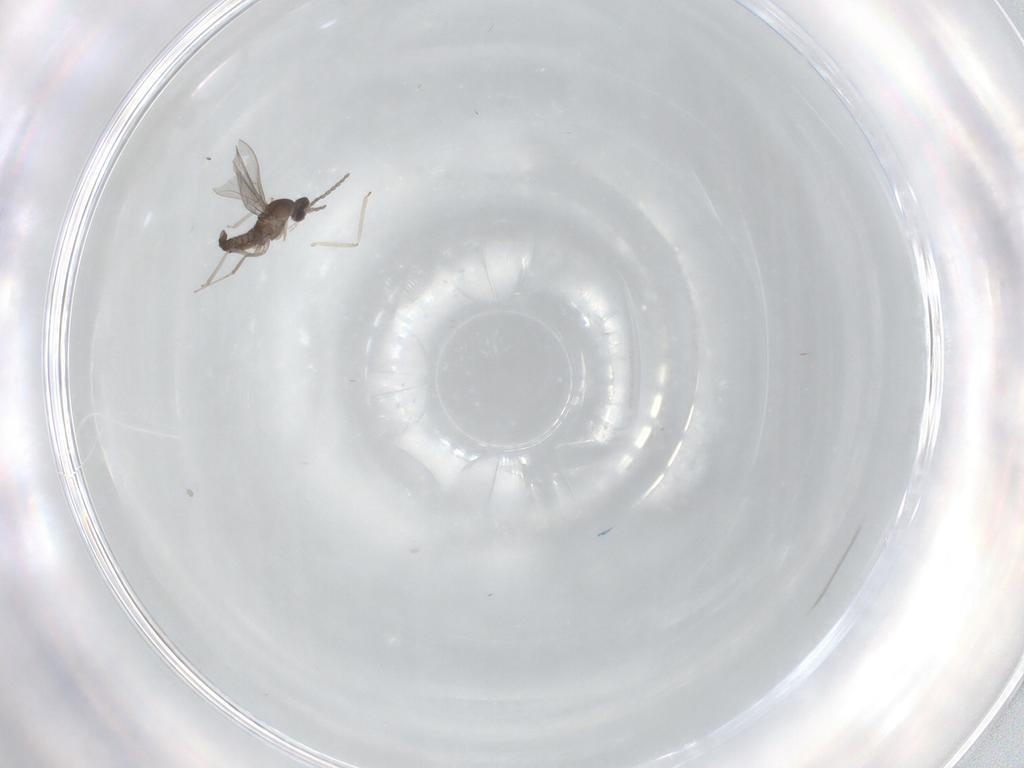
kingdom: Animalia
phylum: Arthropoda
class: Insecta
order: Diptera
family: Cecidomyiidae
